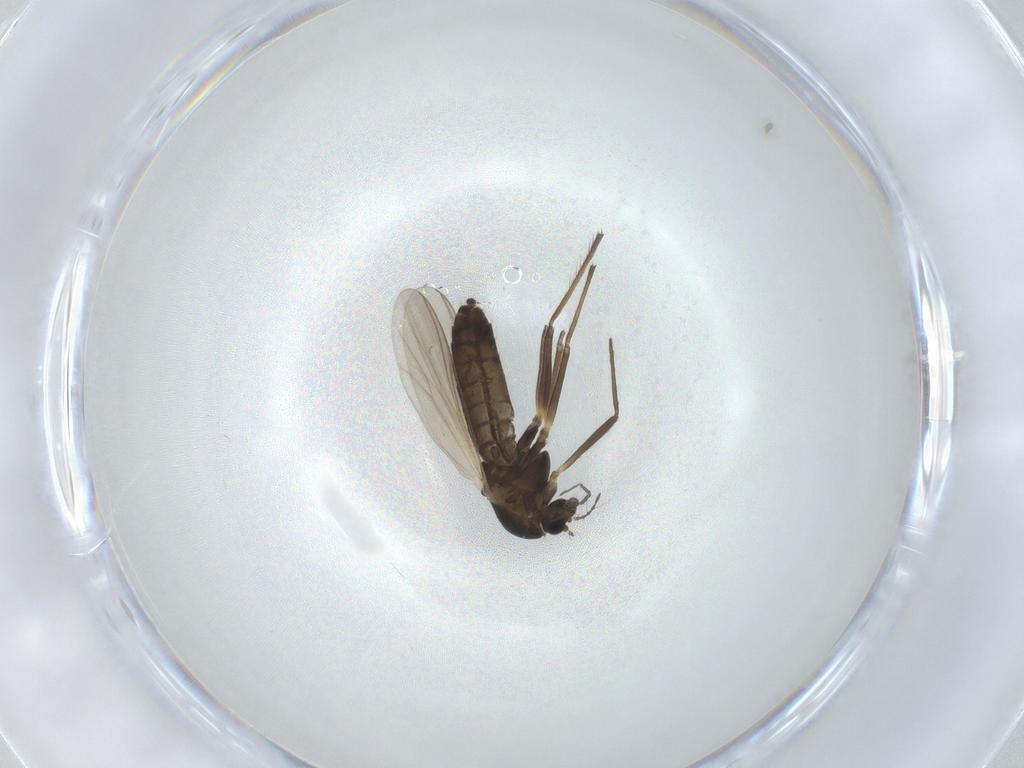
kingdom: Animalia
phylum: Arthropoda
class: Insecta
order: Diptera
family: Chironomidae
